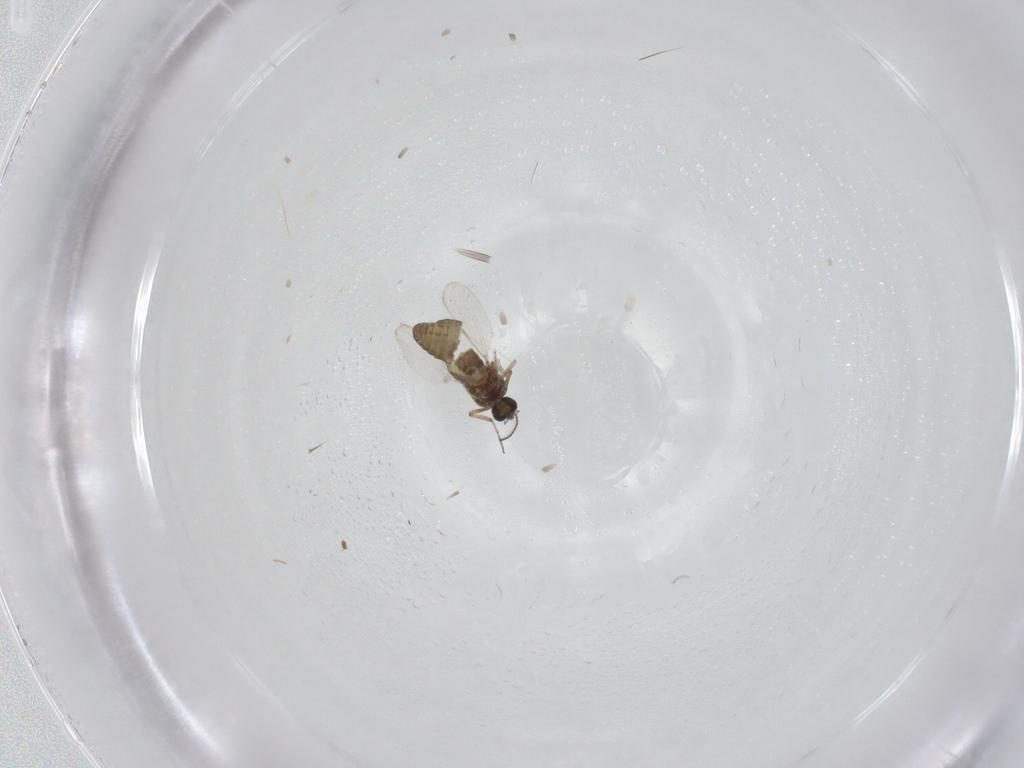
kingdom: Animalia
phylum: Arthropoda
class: Insecta
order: Diptera
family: Ceratopogonidae
